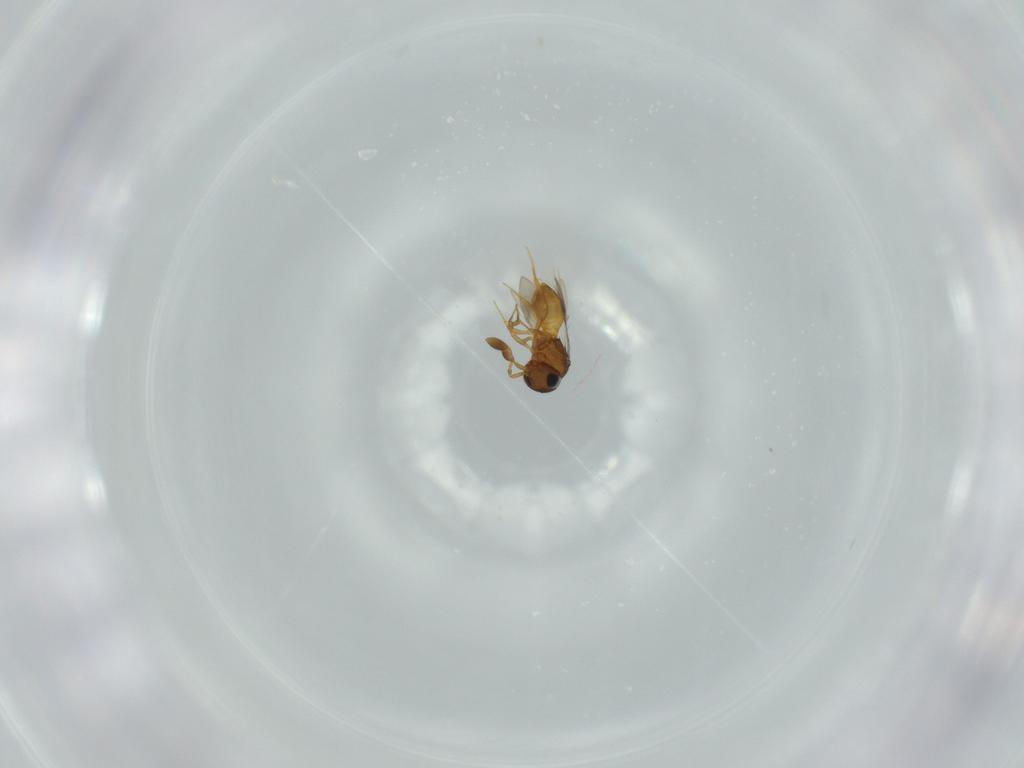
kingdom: Animalia
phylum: Arthropoda
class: Insecta
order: Hymenoptera
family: Scelionidae
